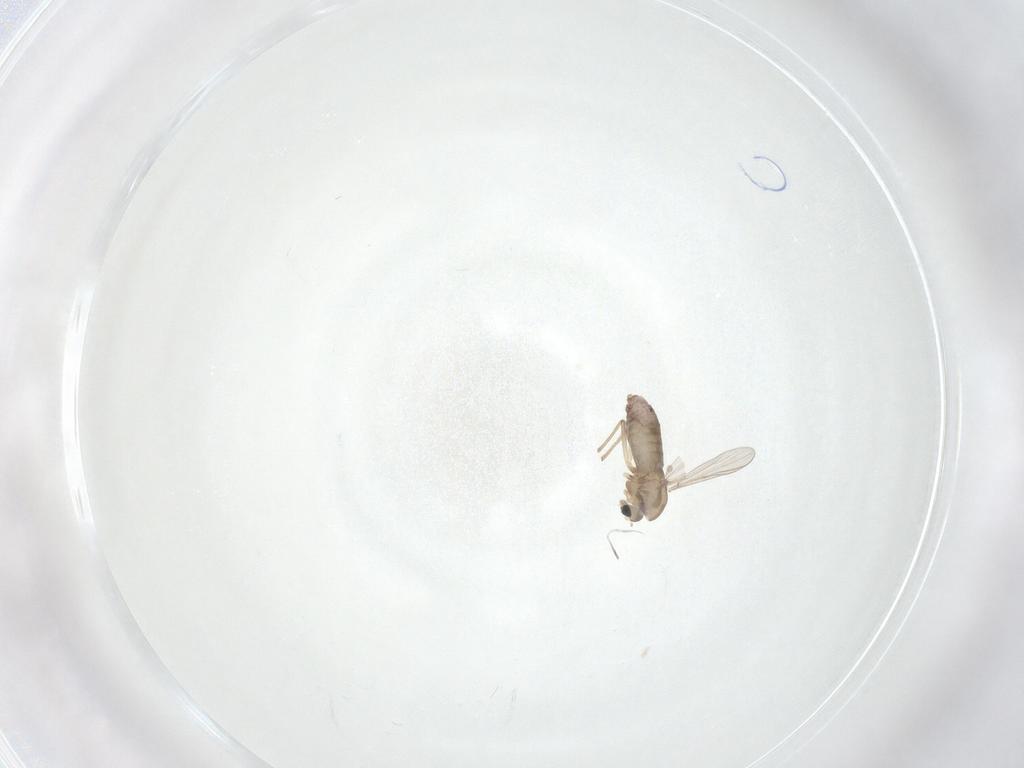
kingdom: Animalia
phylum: Arthropoda
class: Insecta
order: Diptera
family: Chironomidae
